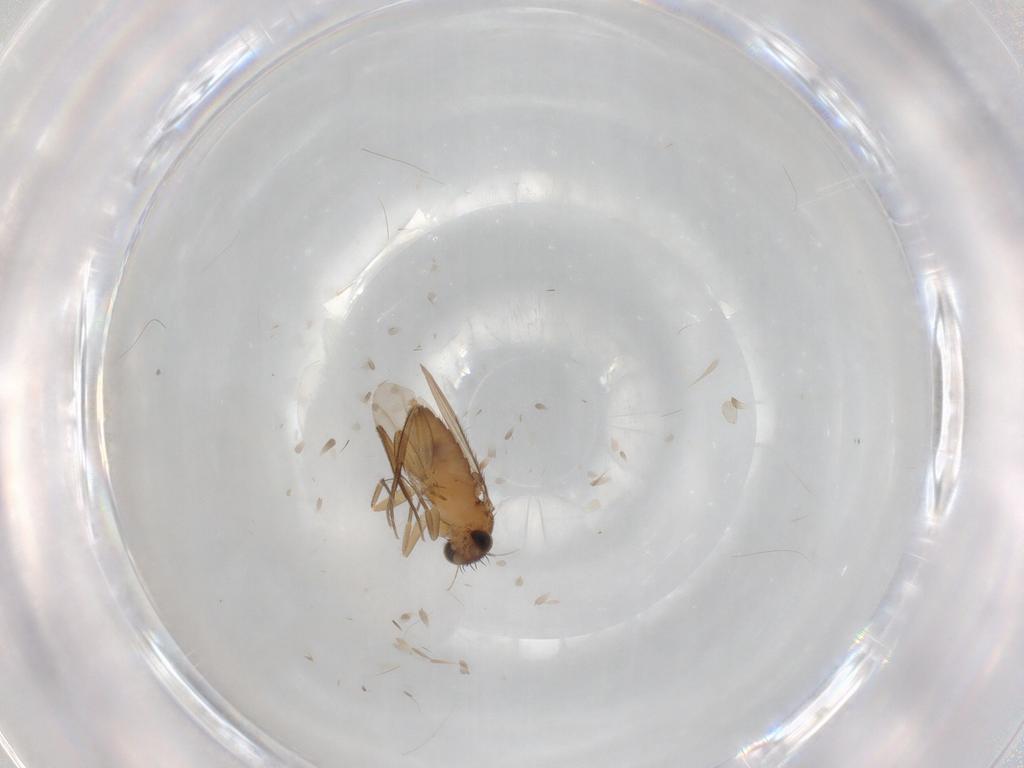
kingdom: Animalia
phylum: Arthropoda
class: Insecta
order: Diptera
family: Phoridae
